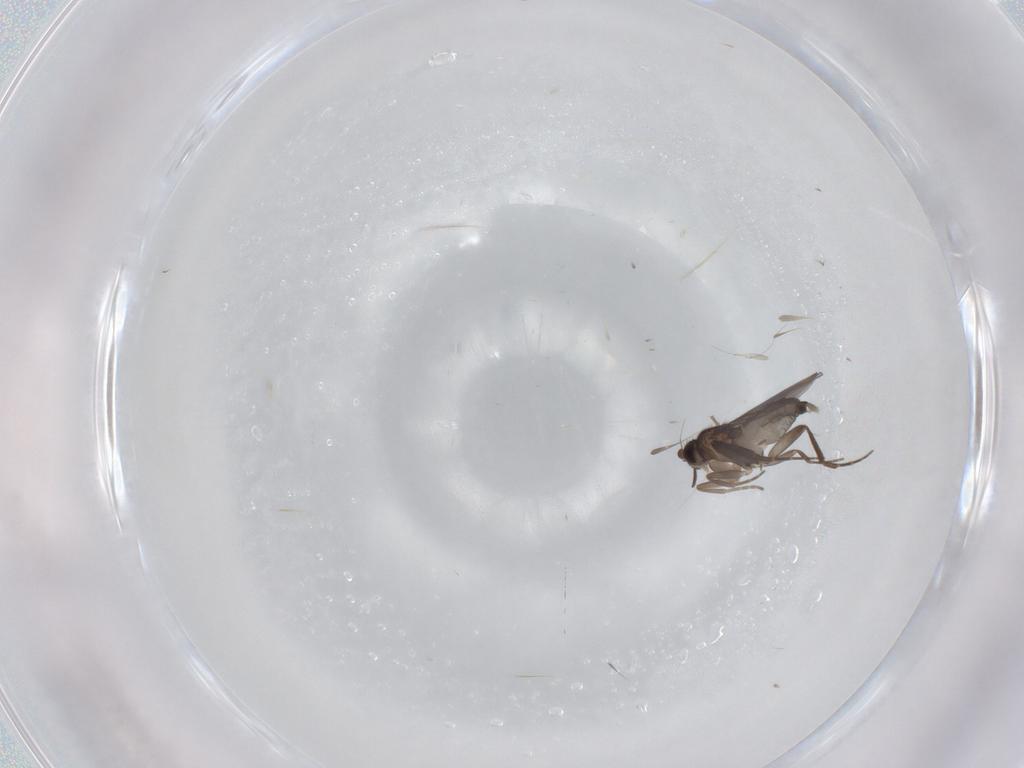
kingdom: Animalia
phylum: Arthropoda
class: Insecta
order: Diptera
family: Phoridae
